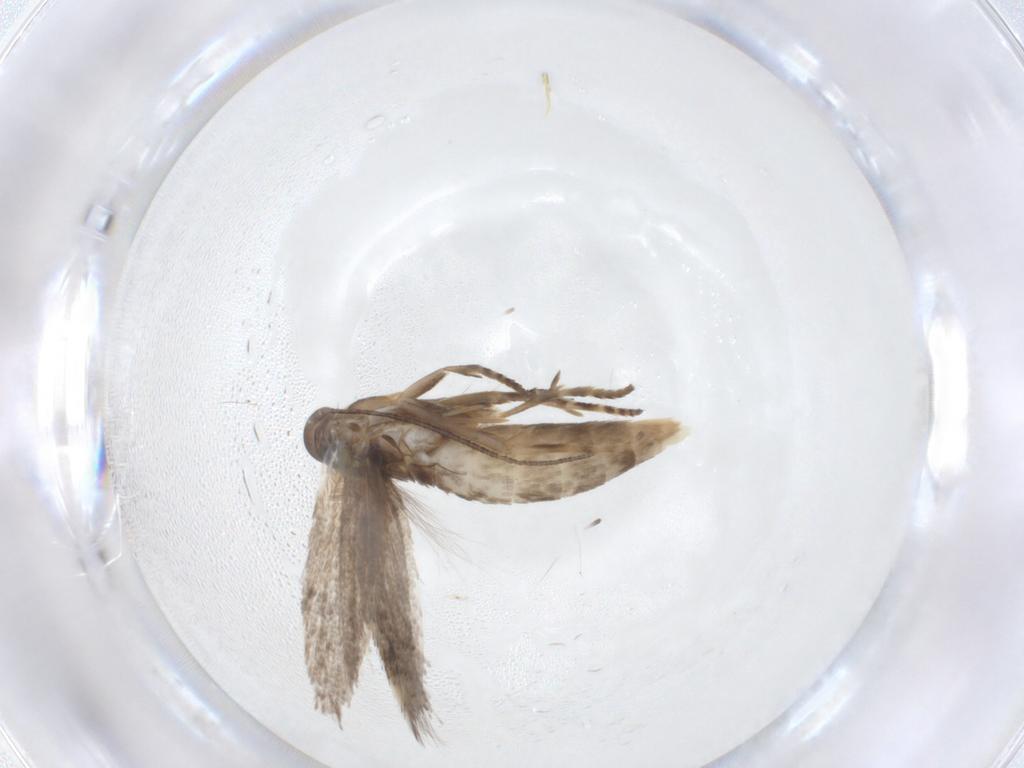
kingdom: Animalia
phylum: Arthropoda
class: Insecta
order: Lepidoptera
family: Elachistidae
